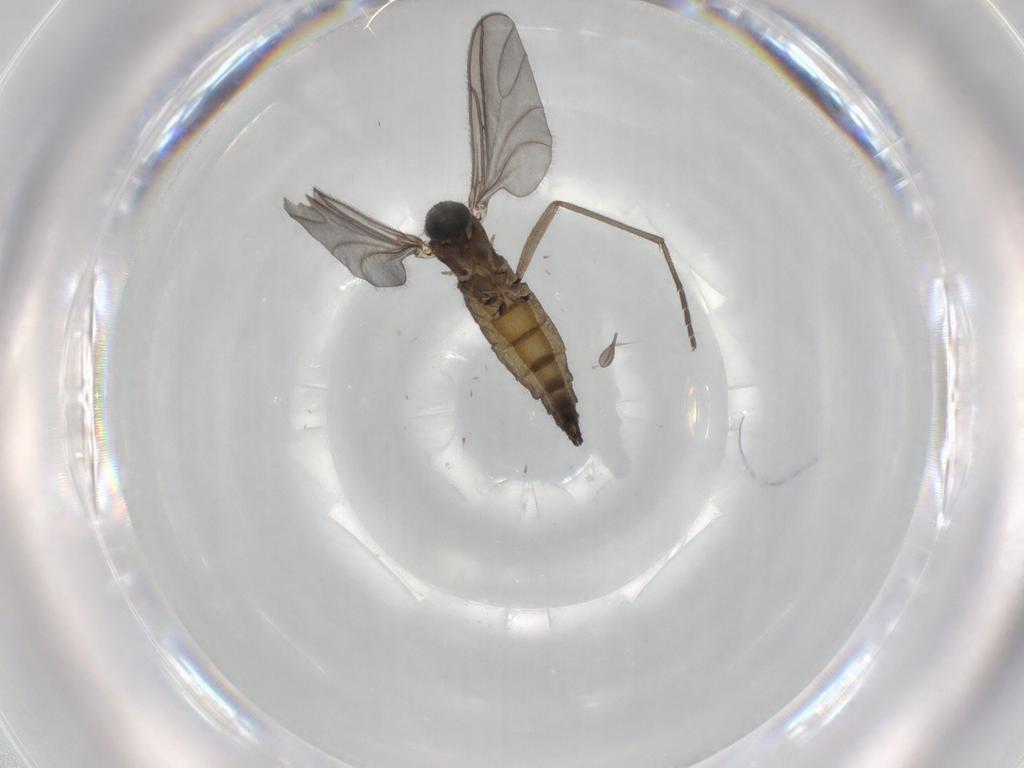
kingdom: Animalia
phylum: Arthropoda
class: Insecta
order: Diptera
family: Sciaridae
